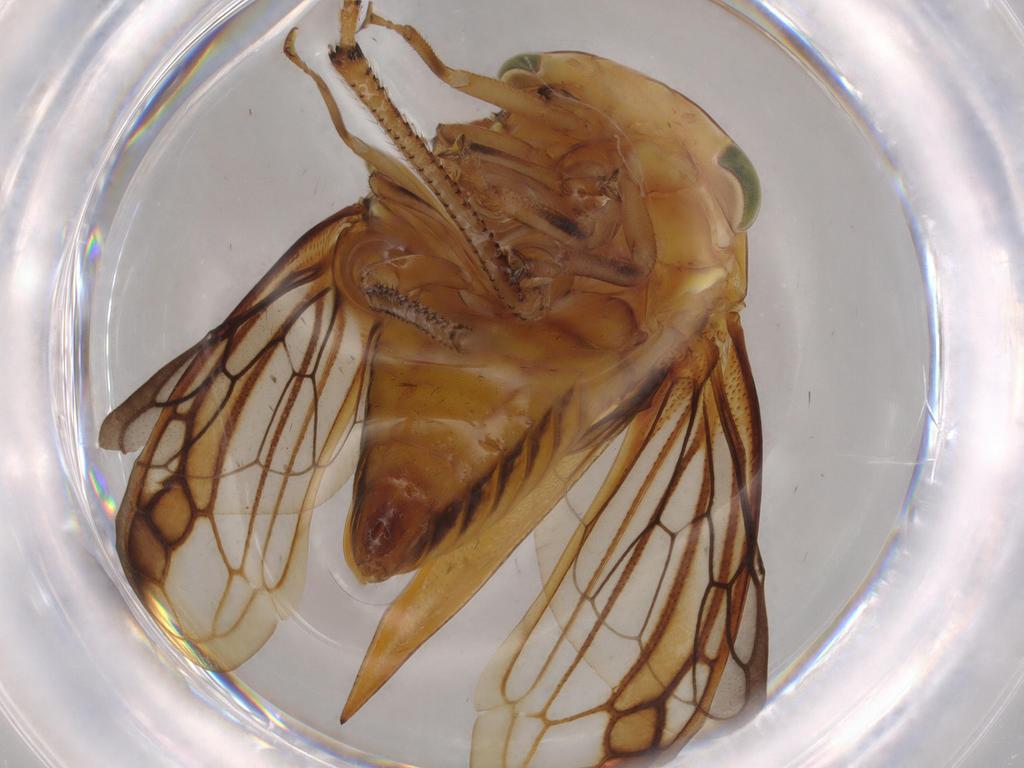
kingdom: Animalia
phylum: Arthropoda
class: Insecta
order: Hemiptera
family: Membracidae
